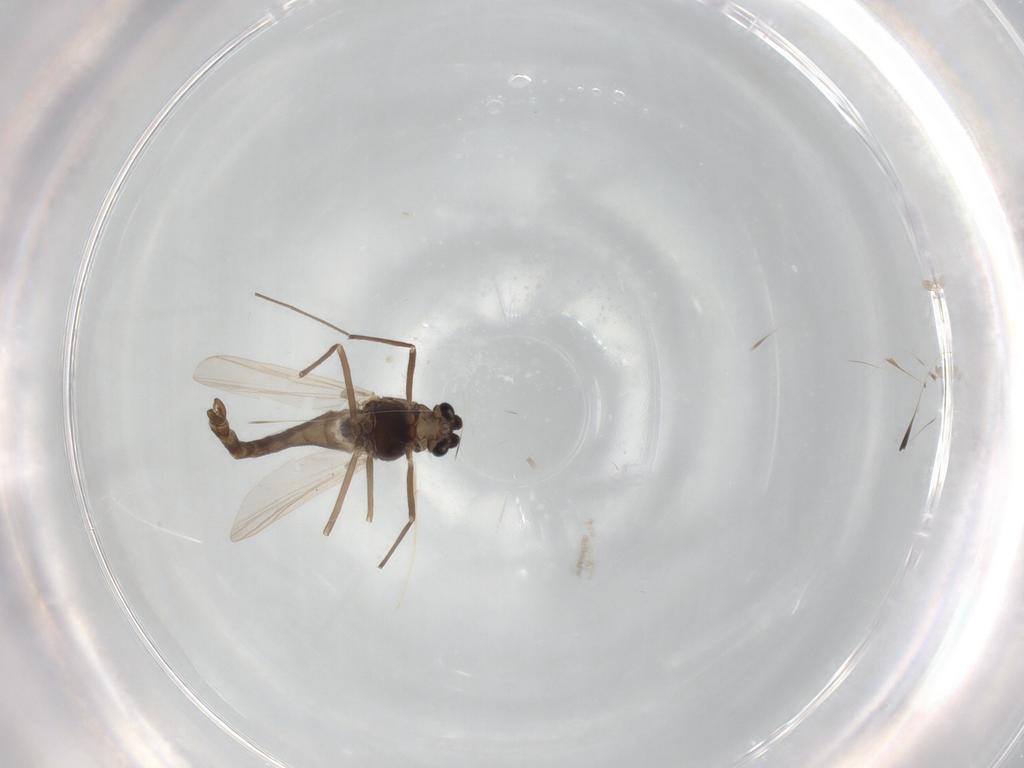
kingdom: Animalia
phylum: Arthropoda
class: Insecta
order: Diptera
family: Chironomidae
